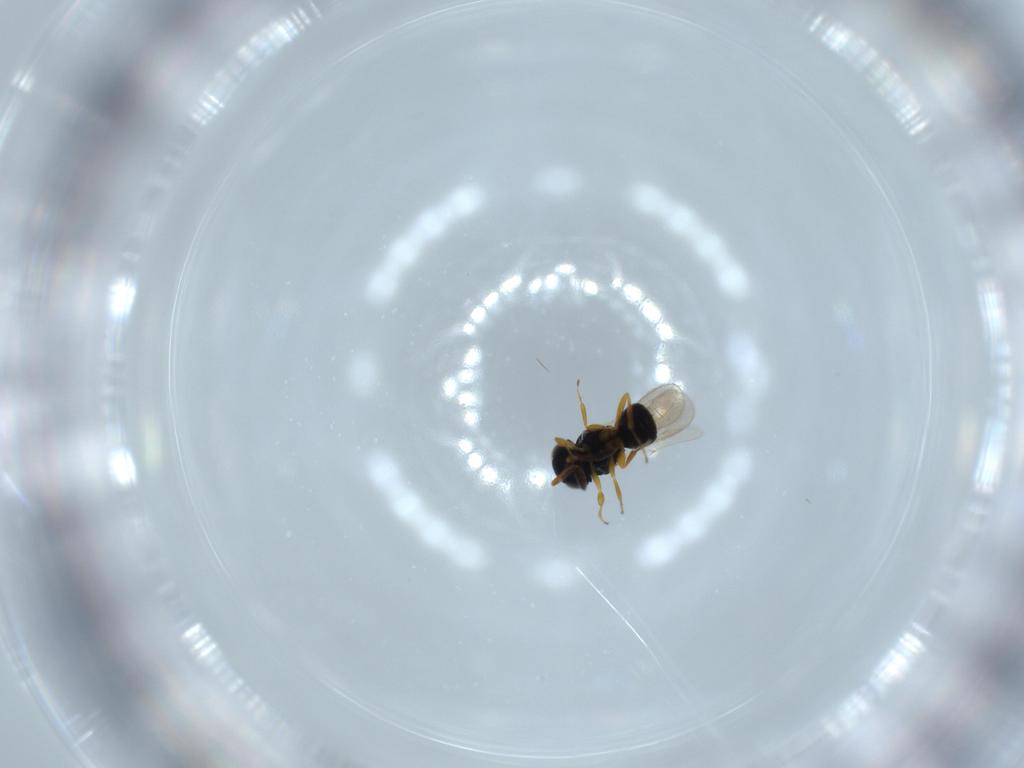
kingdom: Animalia
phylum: Arthropoda
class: Insecta
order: Hymenoptera
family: Scelionidae
